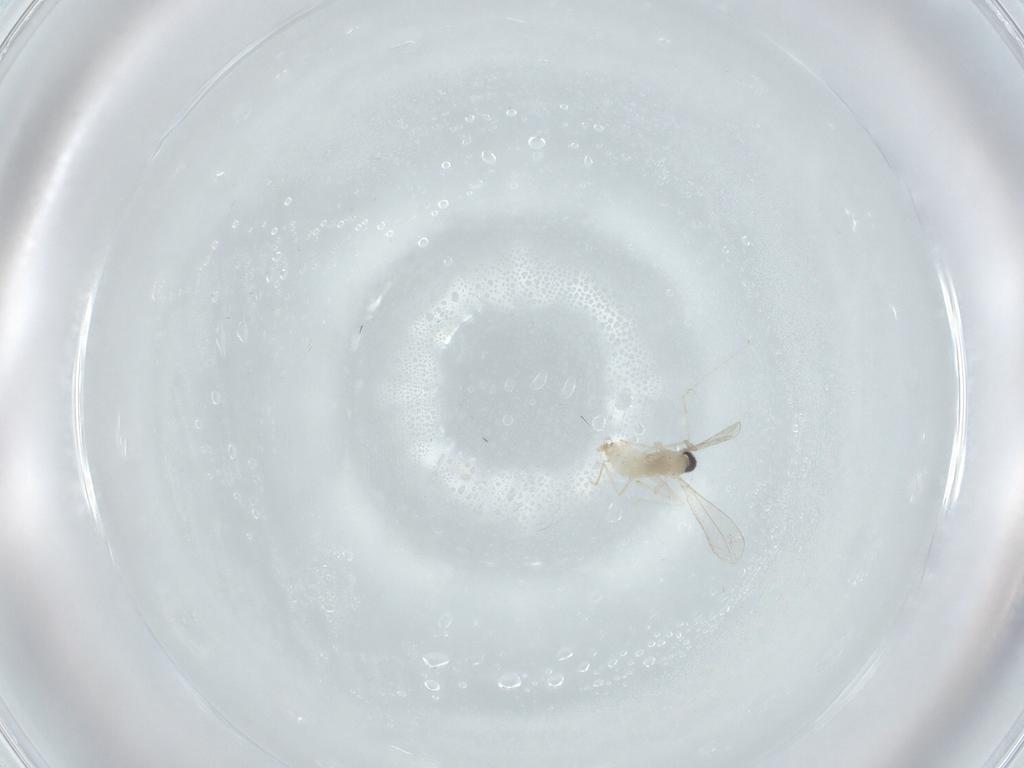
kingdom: Animalia
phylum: Arthropoda
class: Insecta
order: Diptera
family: Cecidomyiidae
